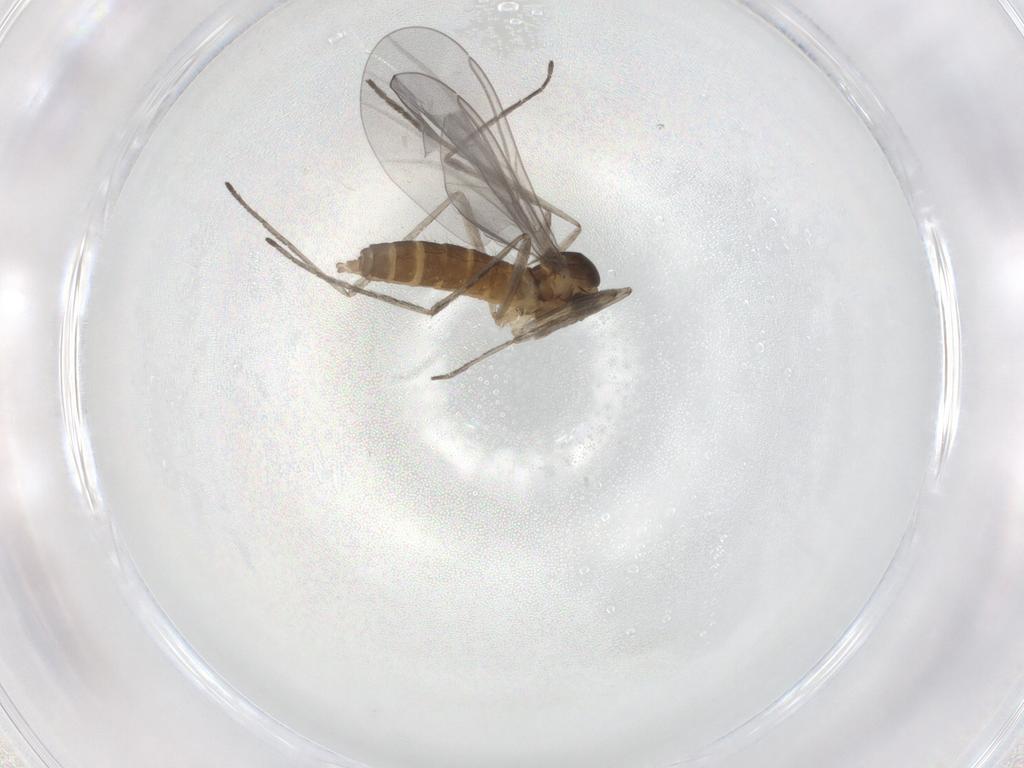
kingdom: Animalia
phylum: Arthropoda
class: Insecta
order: Diptera
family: Cecidomyiidae
